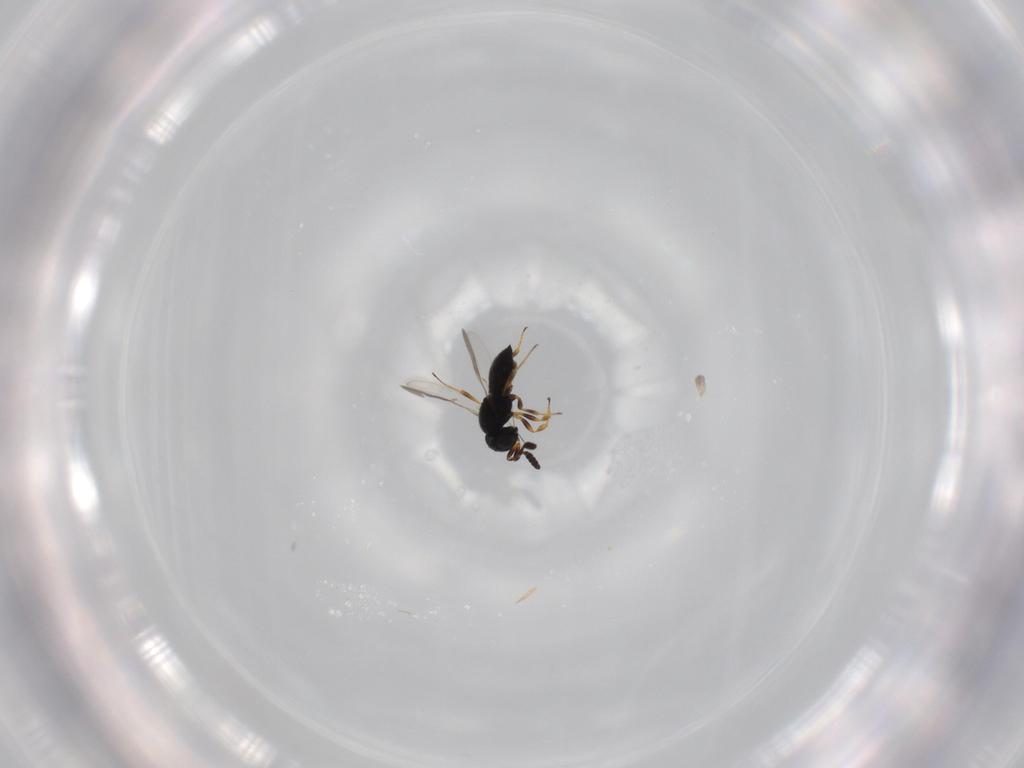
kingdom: Animalia
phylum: Arthropoda
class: Insecta
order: Hymenoptera
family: Scelionidae
